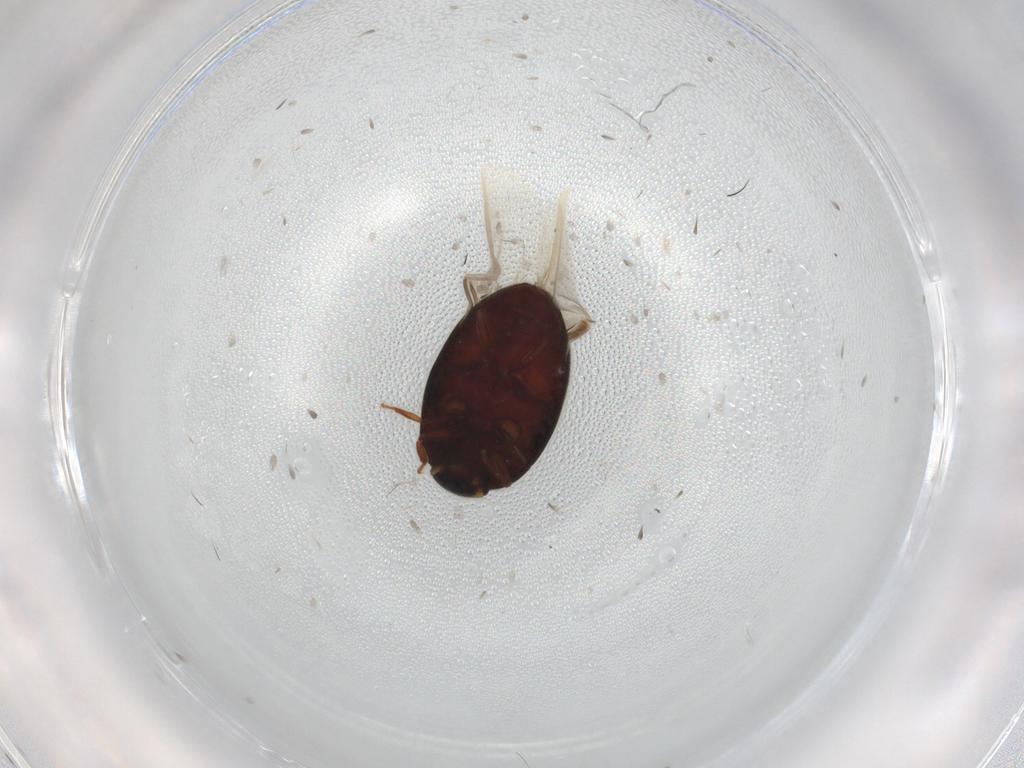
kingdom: Animalia
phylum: Arthropoda
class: Insecta
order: Coleoptera
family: Limnichidae
